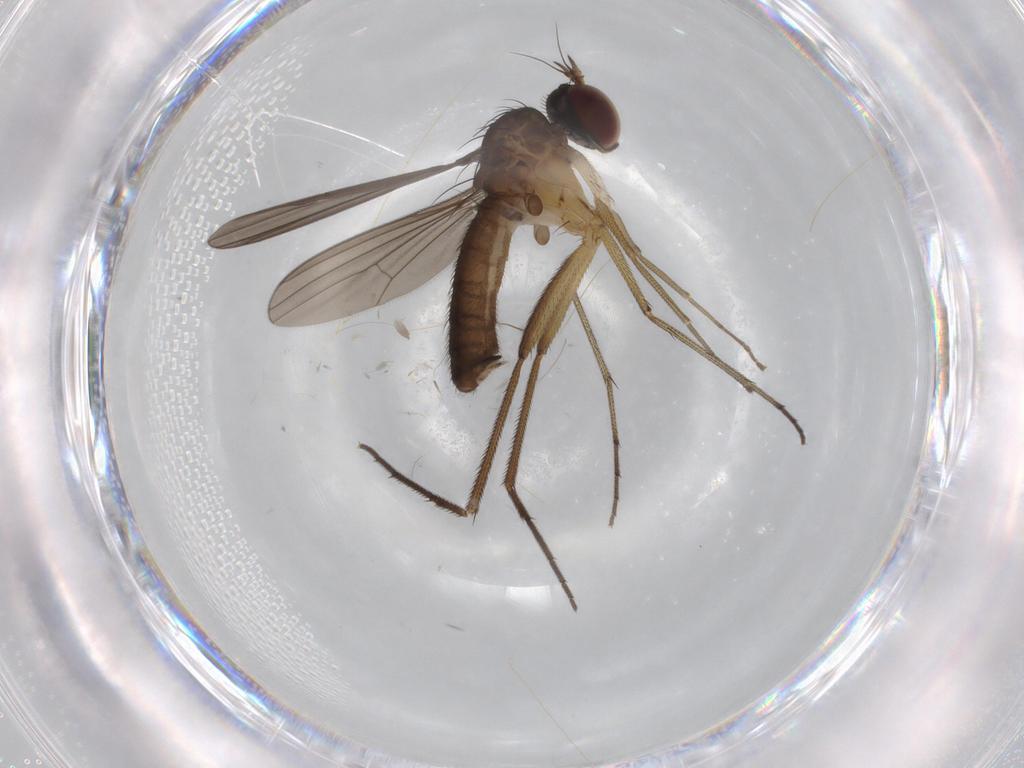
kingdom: Animalia
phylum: Arthropoda
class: Insecta
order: Diptera
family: Dolichopodidae
